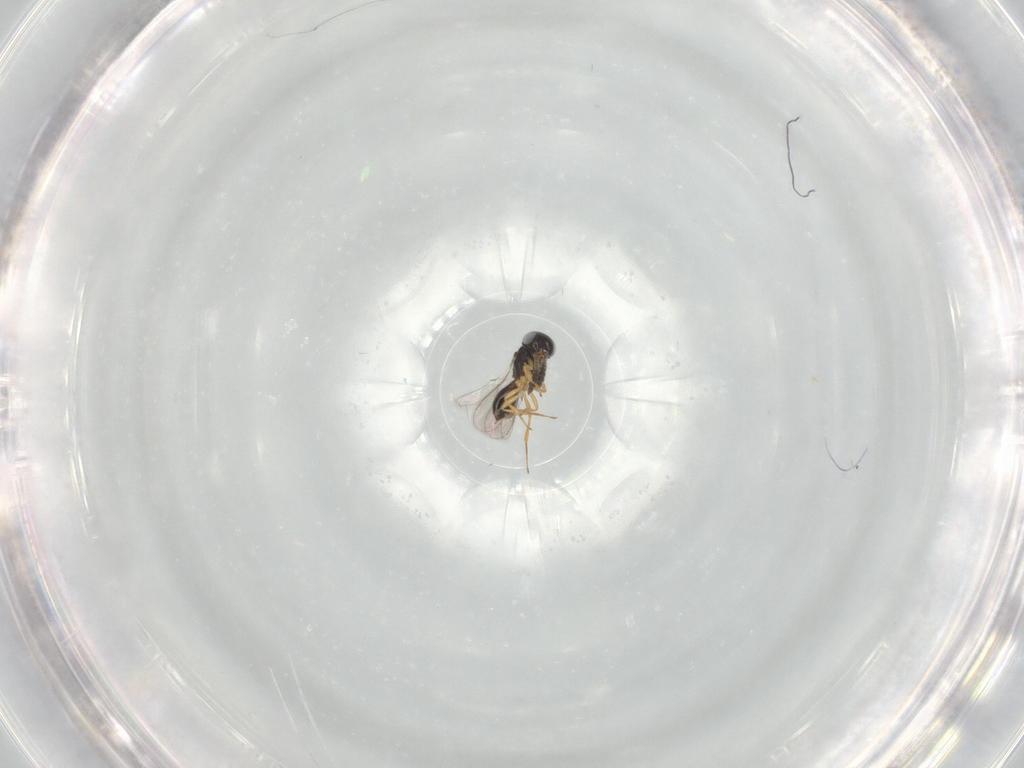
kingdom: Animalia
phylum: Arthropoda
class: Insecta
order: Hymenoptera
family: Scelionidae
